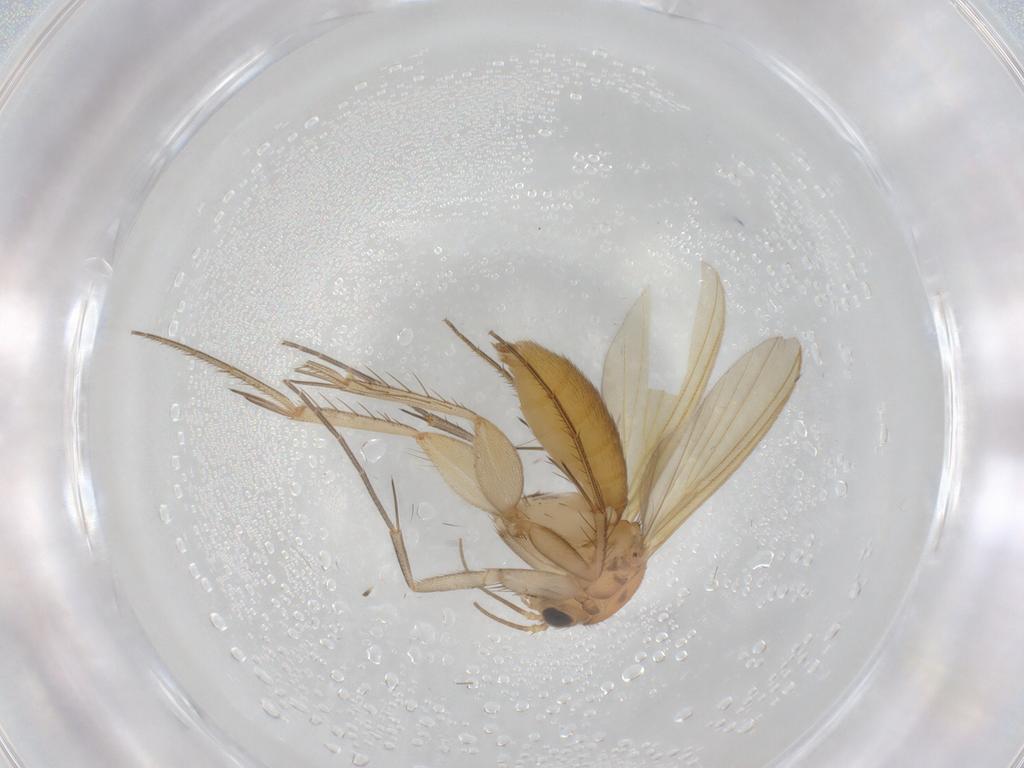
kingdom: Animalia
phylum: Arthropoda
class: Insecta
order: Diptera
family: Mycetophilidae
